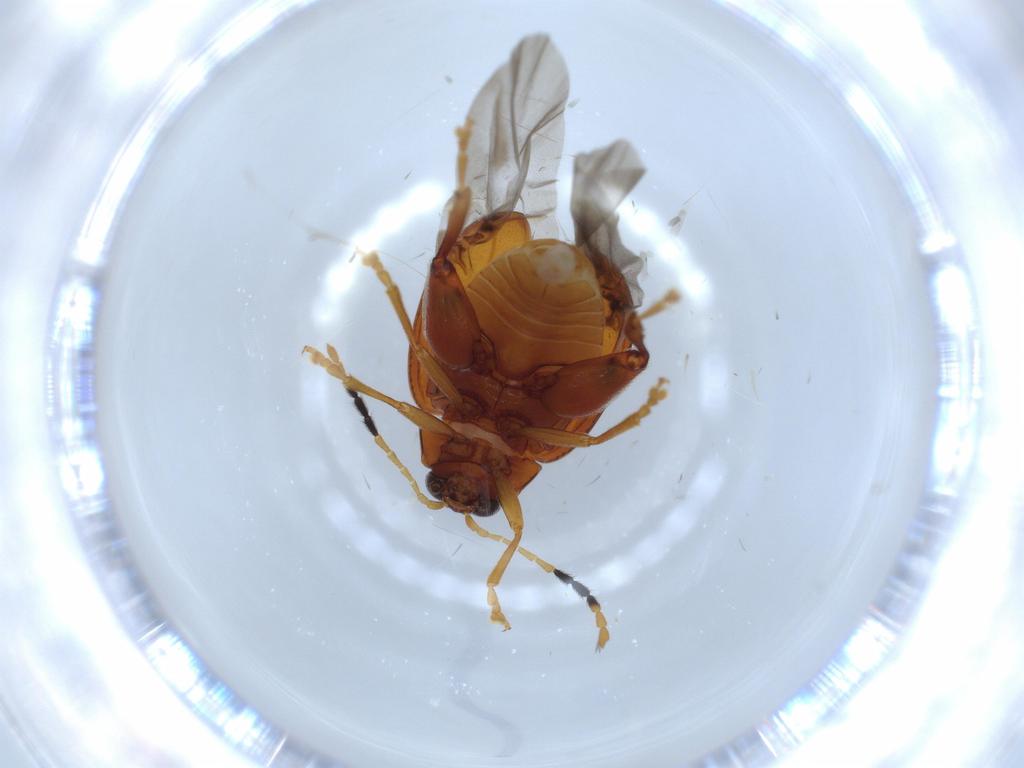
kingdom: Animalia
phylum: Arthropoda
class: Insecta
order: Coleoptera
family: Chrysomelidae
